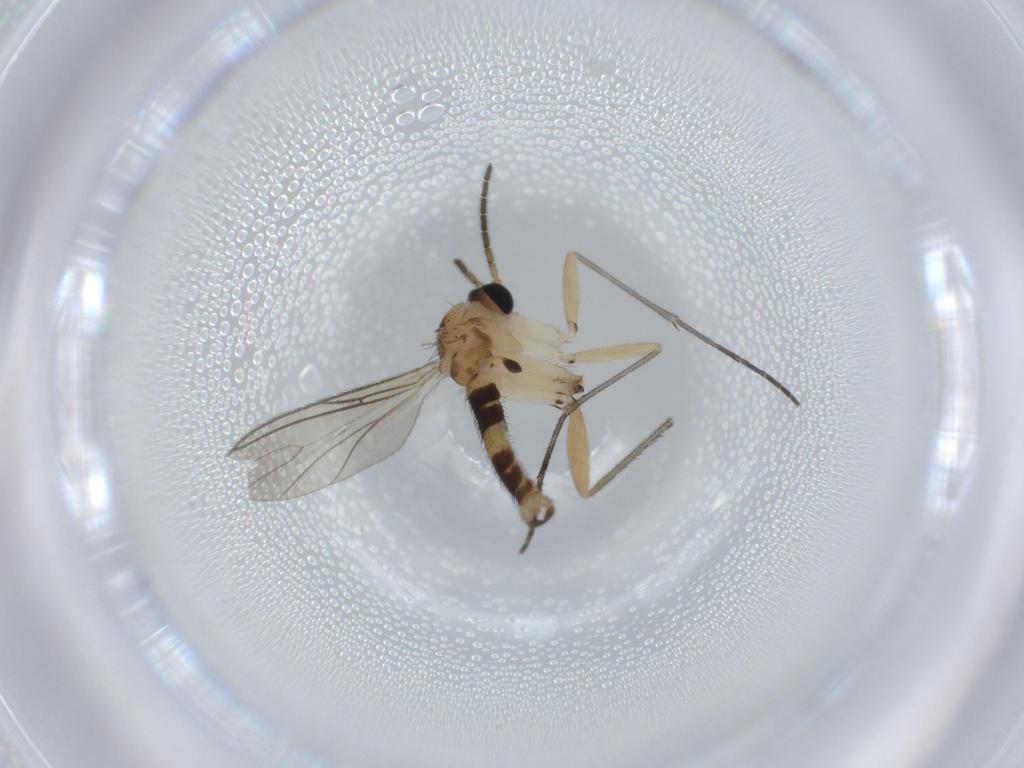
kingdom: Animalia
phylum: Arthropoda
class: Insecta
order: Diptera
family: Sciaridae
